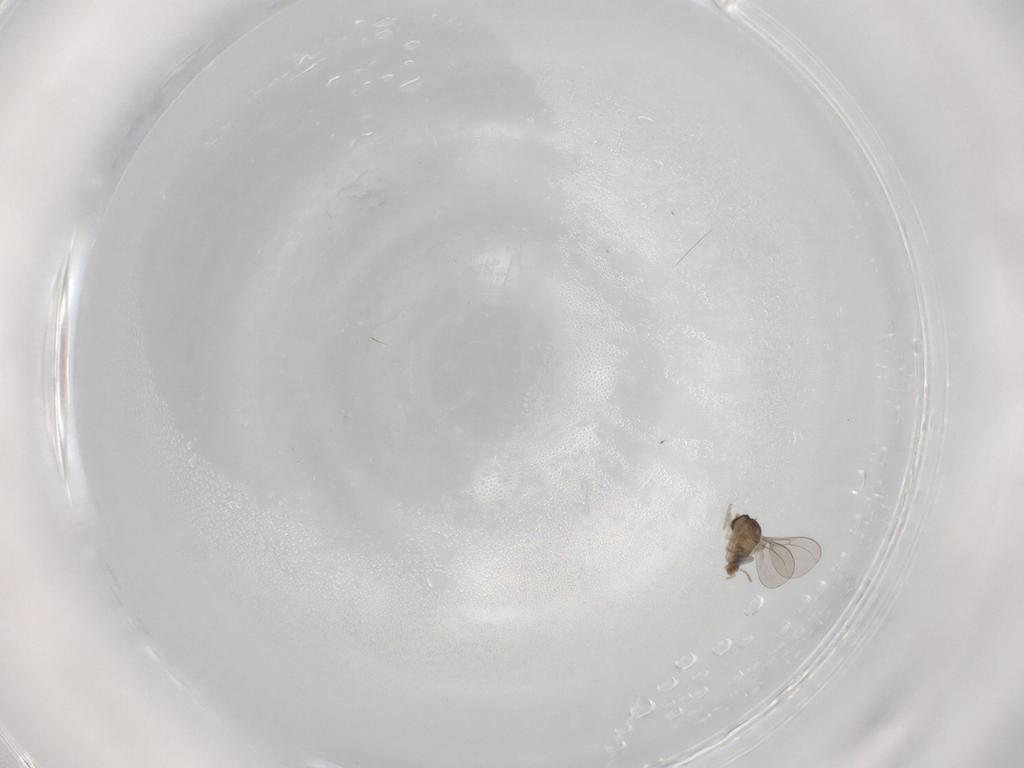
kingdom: Animalia
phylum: Arthropoda
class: Insecta
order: Diptera
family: Cecidomyiidae
